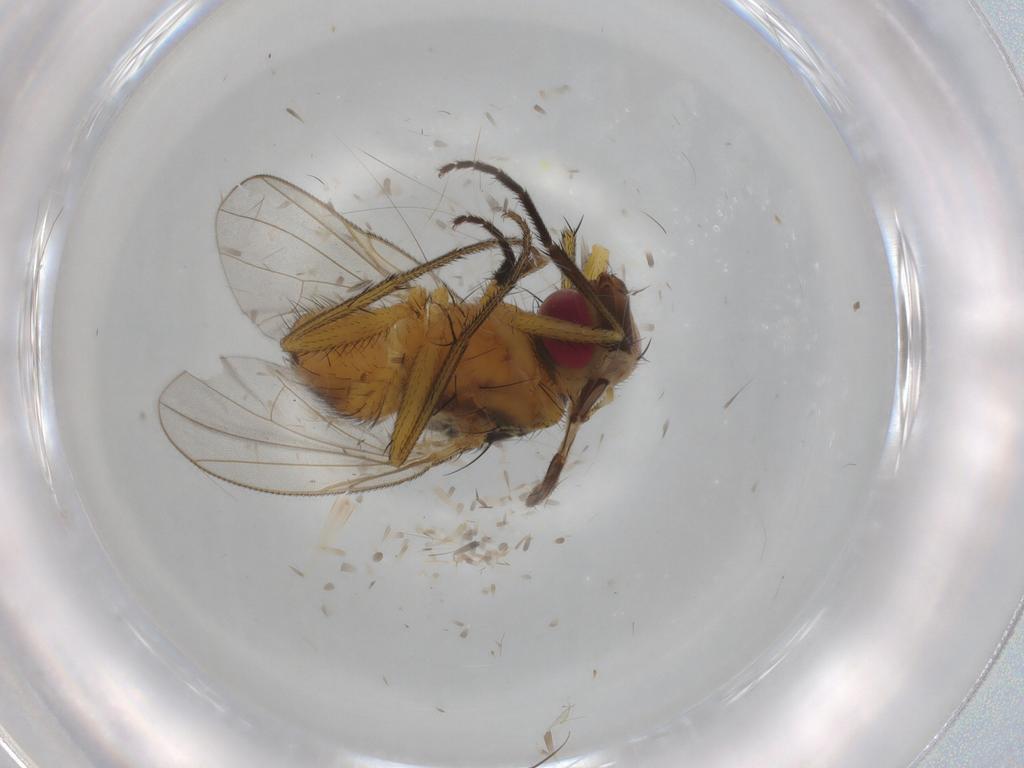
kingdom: Animalia
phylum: Arthropoda
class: Insecta
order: Diptera
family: Muscidae
